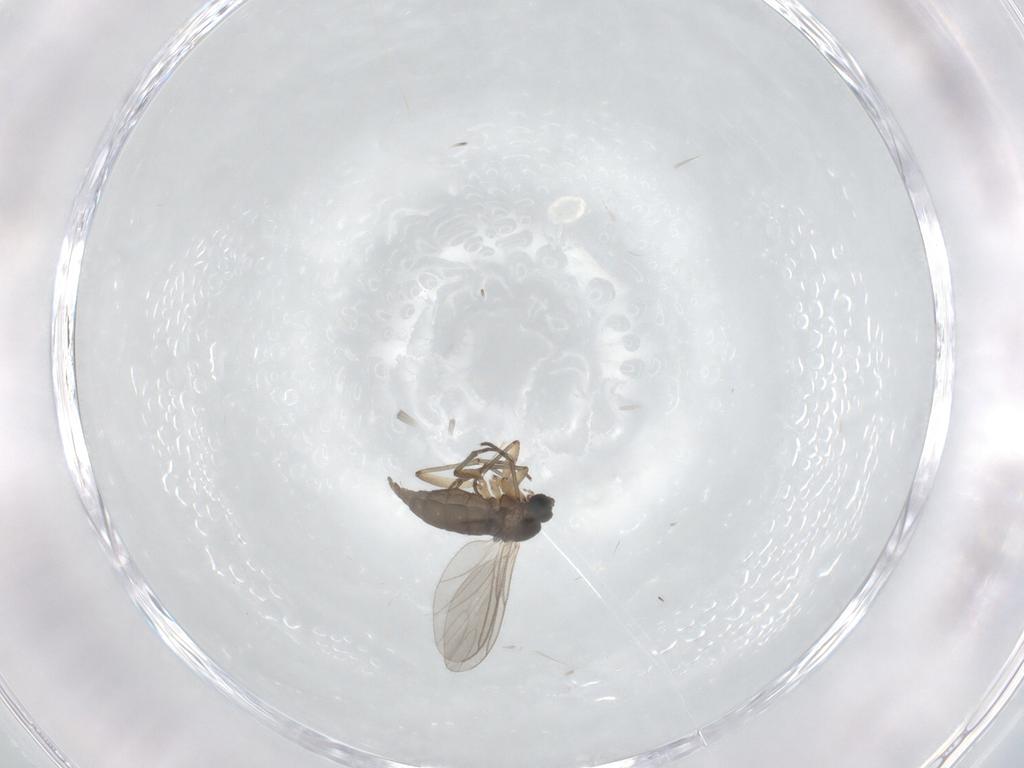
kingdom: Animalia
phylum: Arthropoda
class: Insecta
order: Diptera
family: Sciaridae
